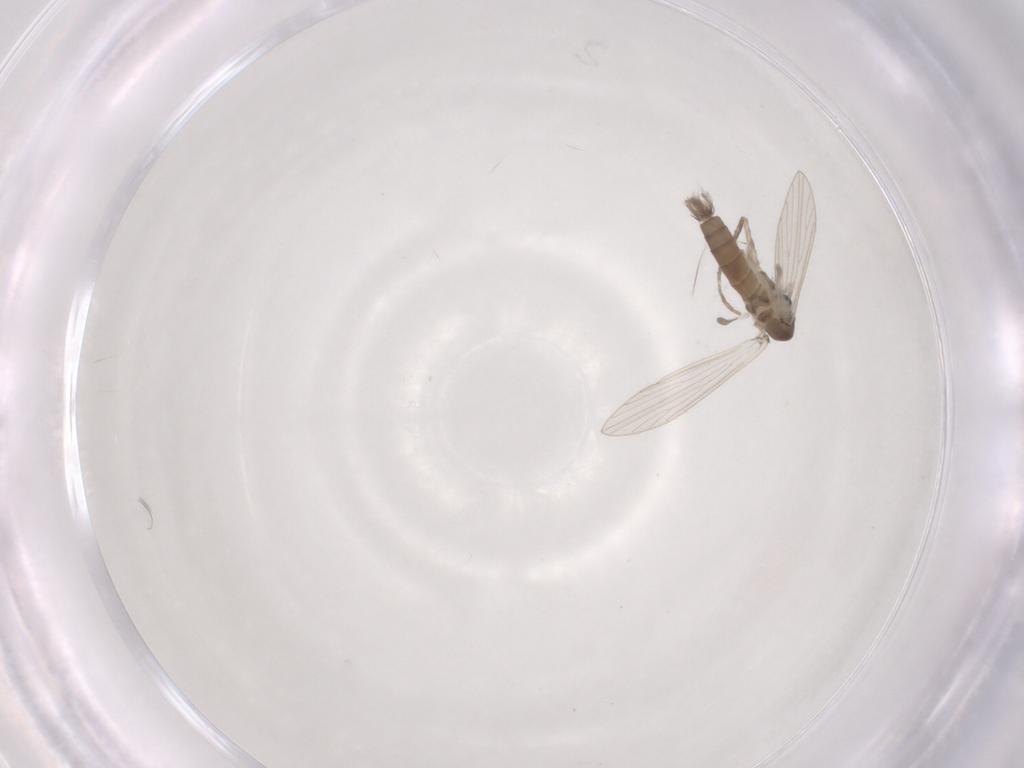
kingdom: Animalia
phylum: Arthropoda
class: Insecta
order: Diptera
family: Psychodidae
